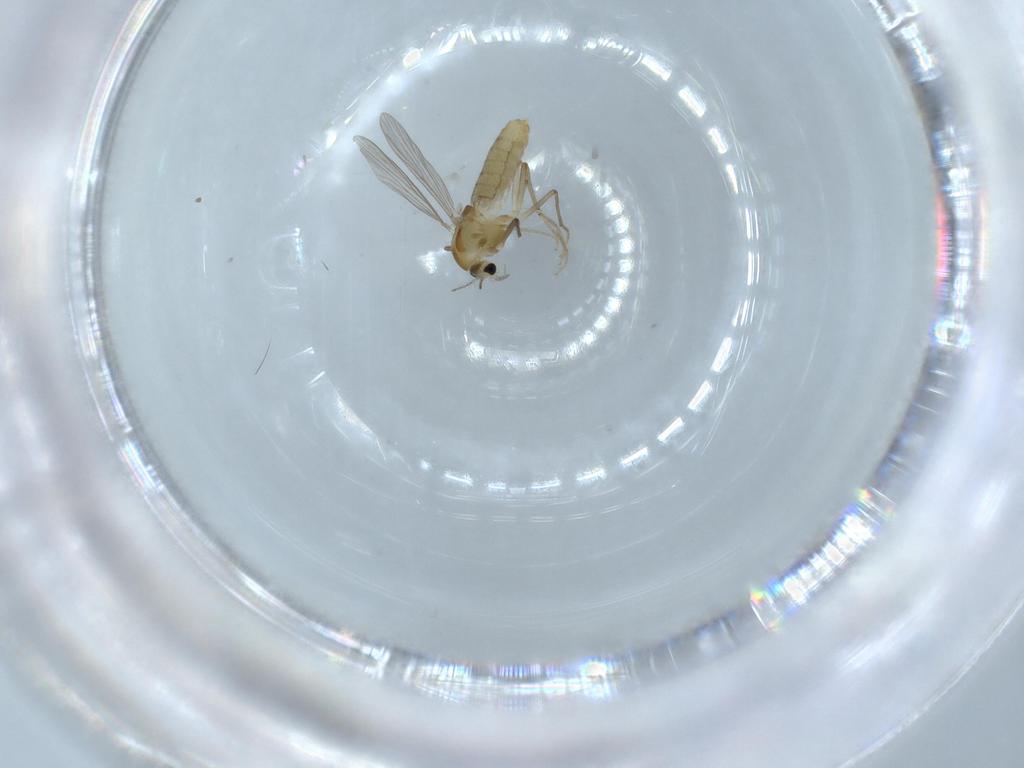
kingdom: Animalia
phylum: Arthropoda
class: Insecta
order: Diptera
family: Chironomidae
